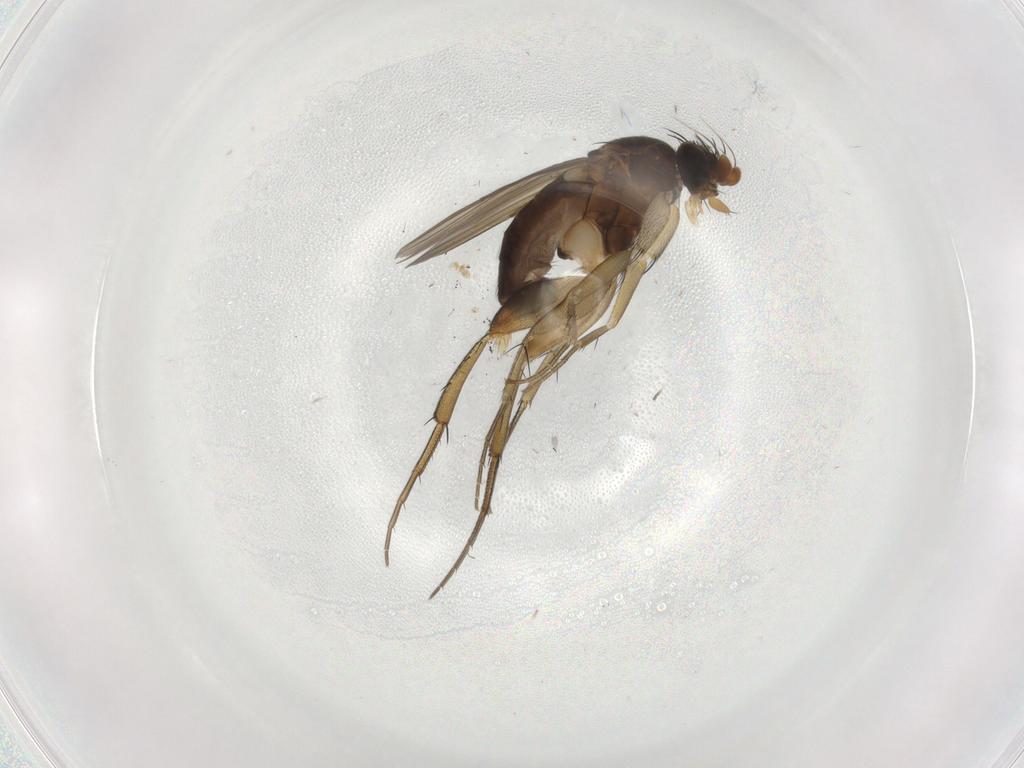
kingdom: Animalia
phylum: Arthropoda
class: Insecta
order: Diptera
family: Phoridae
